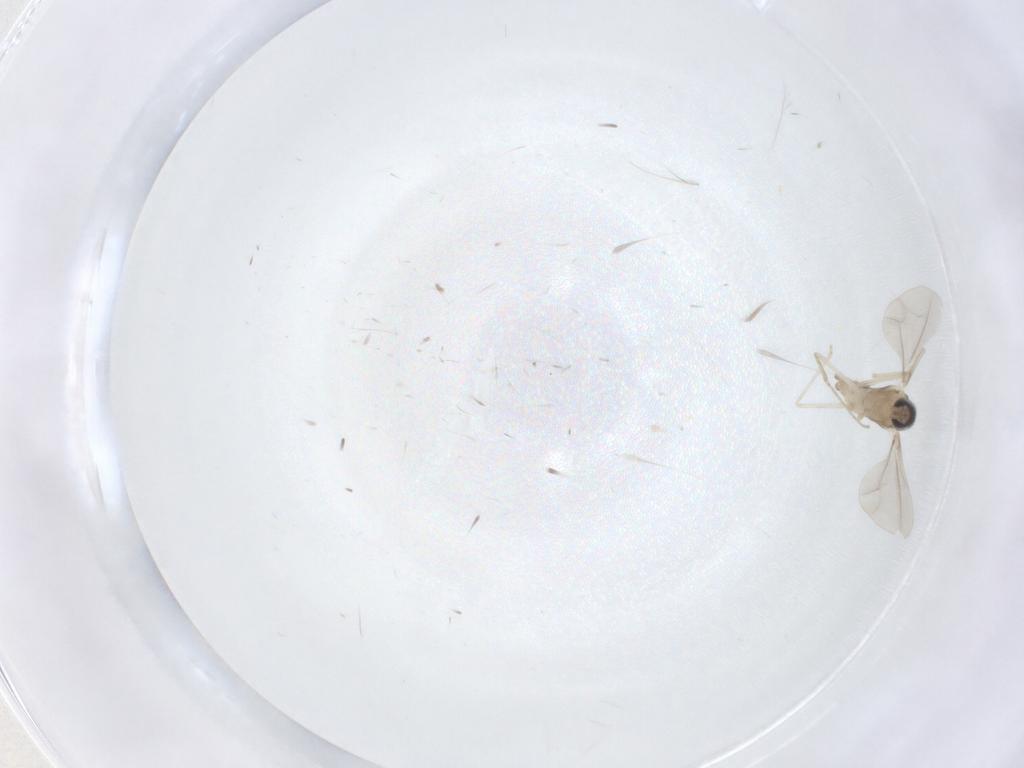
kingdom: Animalia
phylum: Arthropoda
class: Insecta
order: Diptera
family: Cecidomyiidae
